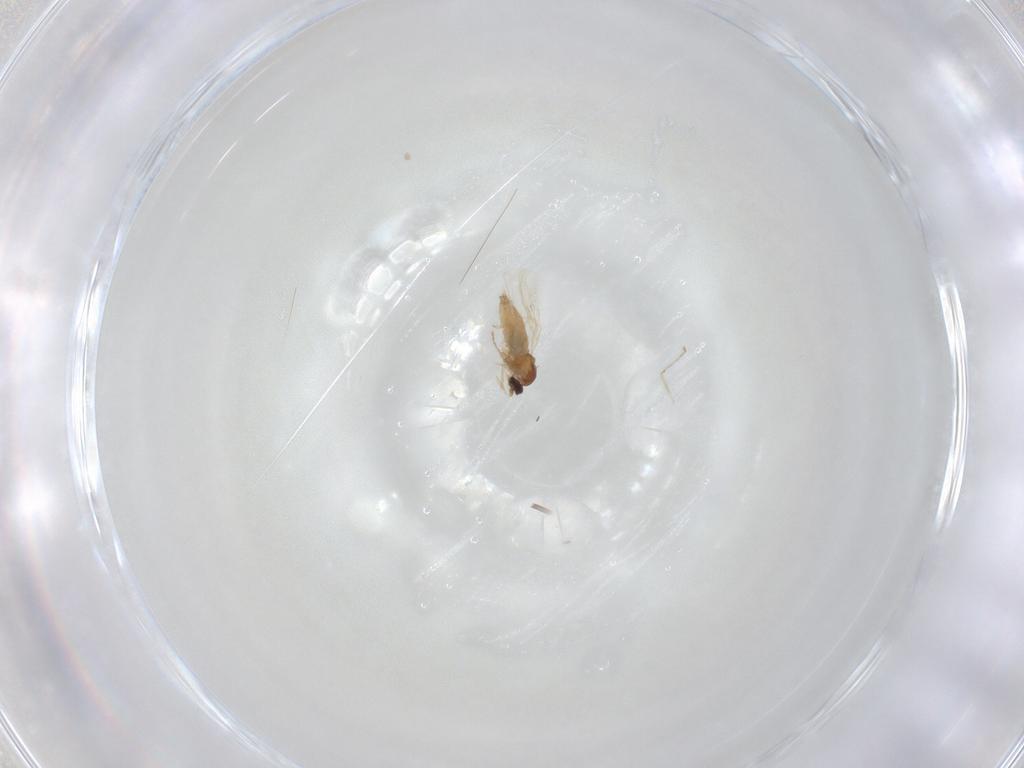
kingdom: Animalia
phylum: Arthropoda
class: Insecta
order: Diptera
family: Cecidomyiidae
